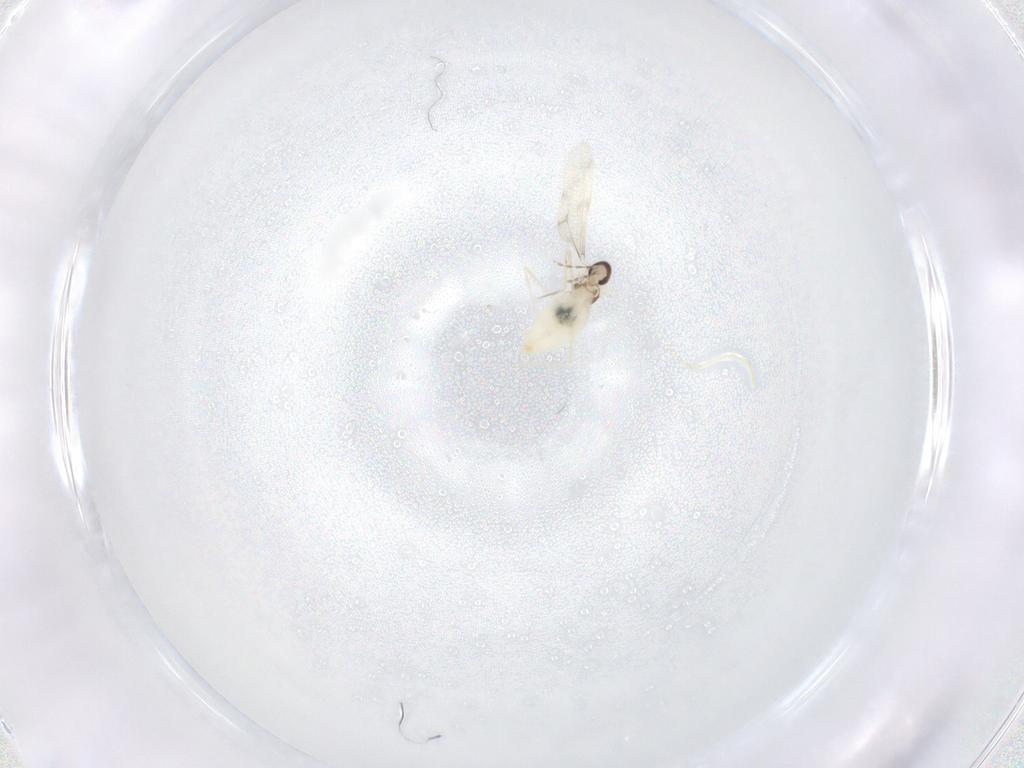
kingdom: Animalia
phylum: Arthropoda
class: Insecta
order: Diptera
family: Cecidomyiidae
